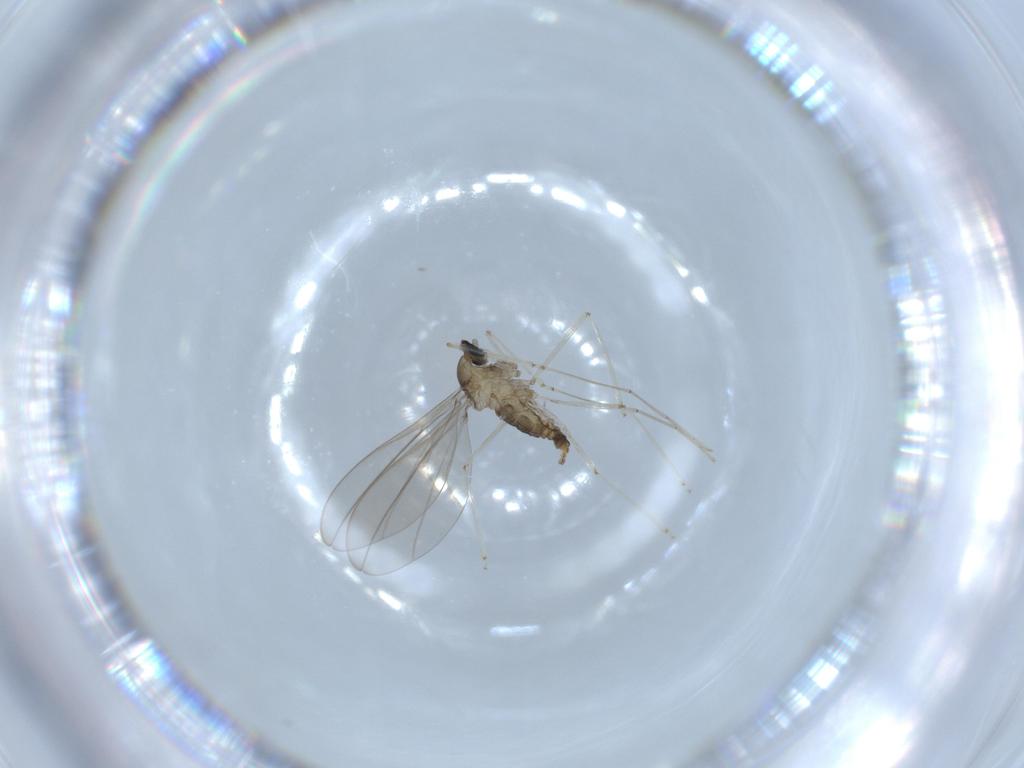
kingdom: Animalia
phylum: Arthropoda
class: Insecta
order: Diptera
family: Cecidomyiidae
